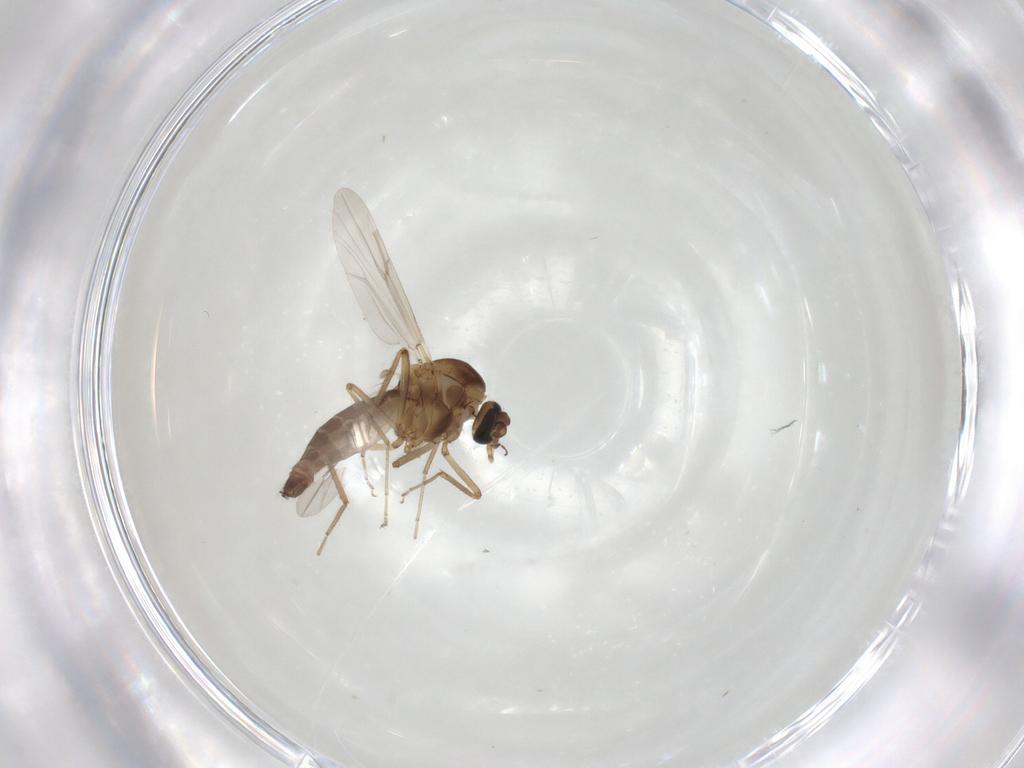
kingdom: Animalia
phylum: Arthropoda
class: Insecta
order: Diptera
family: Ceratopogonidae
